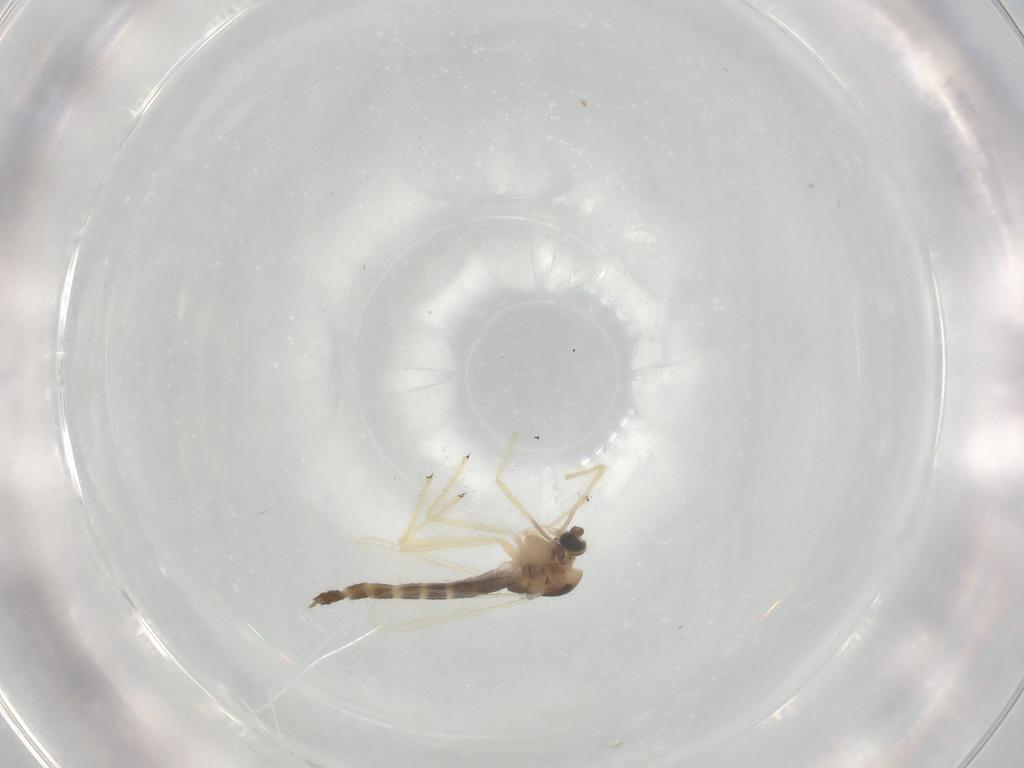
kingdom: Animalia
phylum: Arthropoda
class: Insecta
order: Diptera
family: Chironomidae
